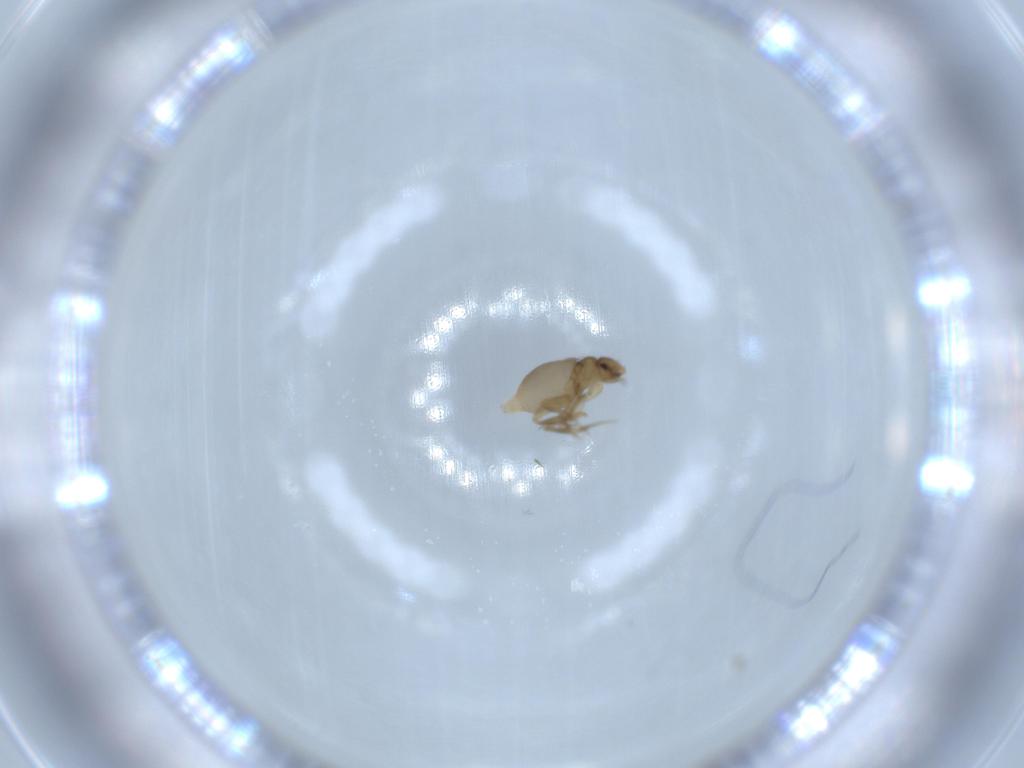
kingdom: Animalia
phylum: Arthropoda
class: Insecta
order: Diptera
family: Phoridae
